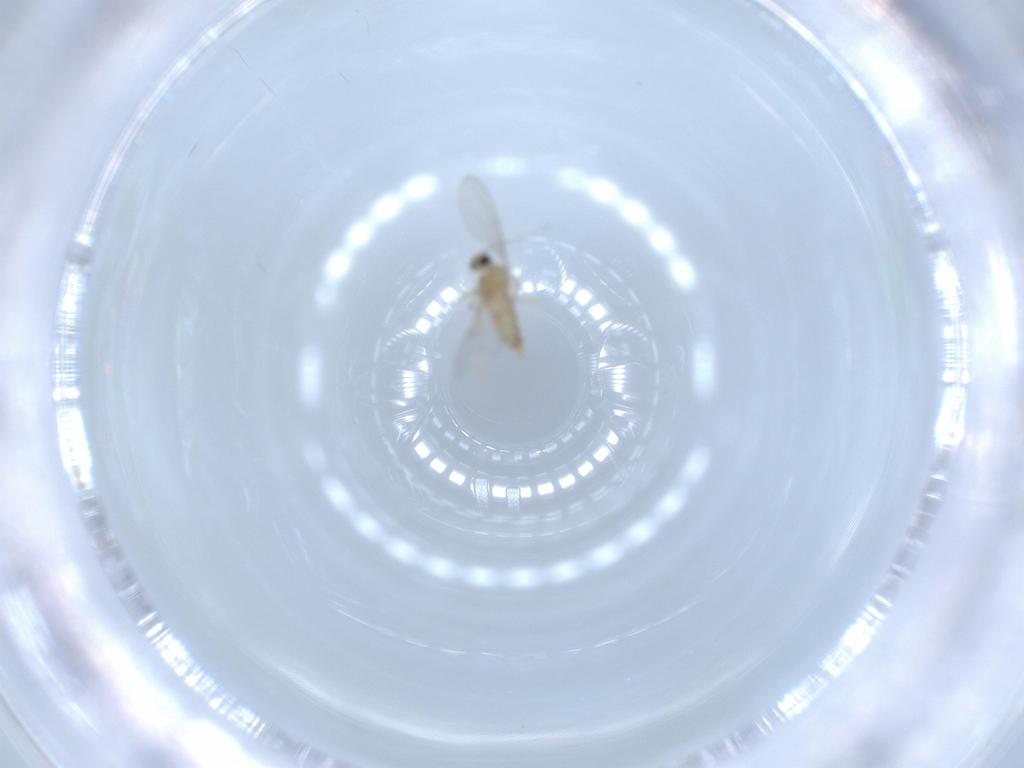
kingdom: Animalia
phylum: Arthropoda
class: Insecta
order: Diptera
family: Cecidomyiidae
